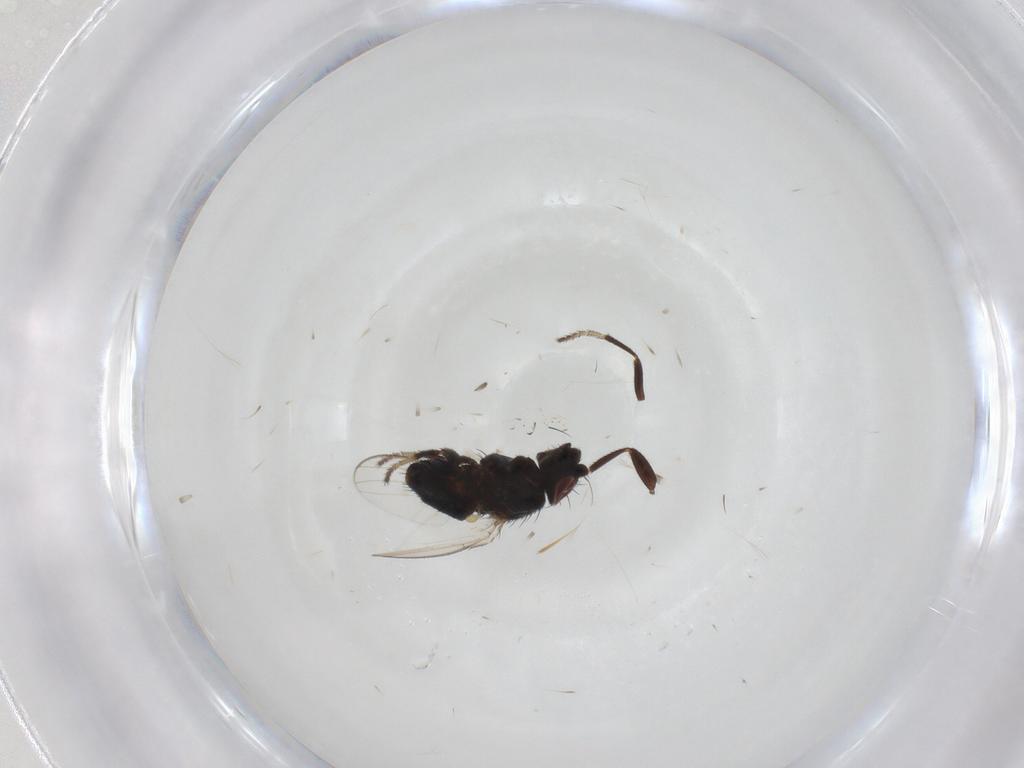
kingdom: Animalia
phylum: Arthropoda
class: Insecta
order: Diptera
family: Milichiidae
